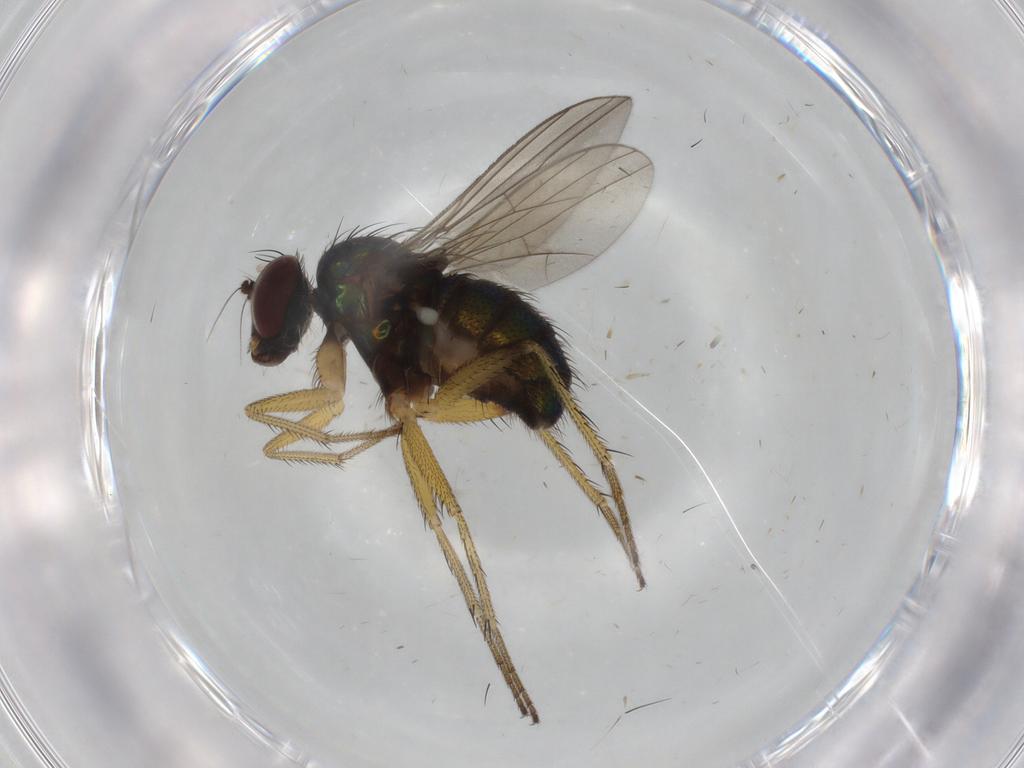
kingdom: Animalia
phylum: Arthropoda
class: Insecta
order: Diptera
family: Dolichopodidae
